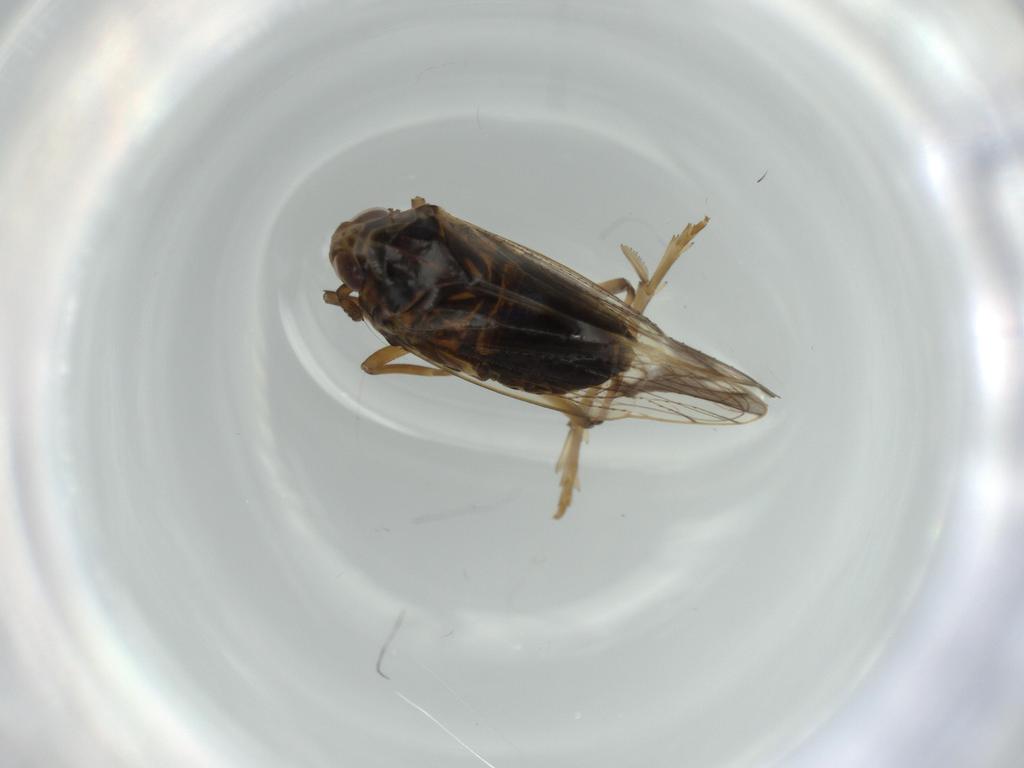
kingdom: Animalia
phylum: Arthropoda
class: Insecta
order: Hemiptera
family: Delphacidae
